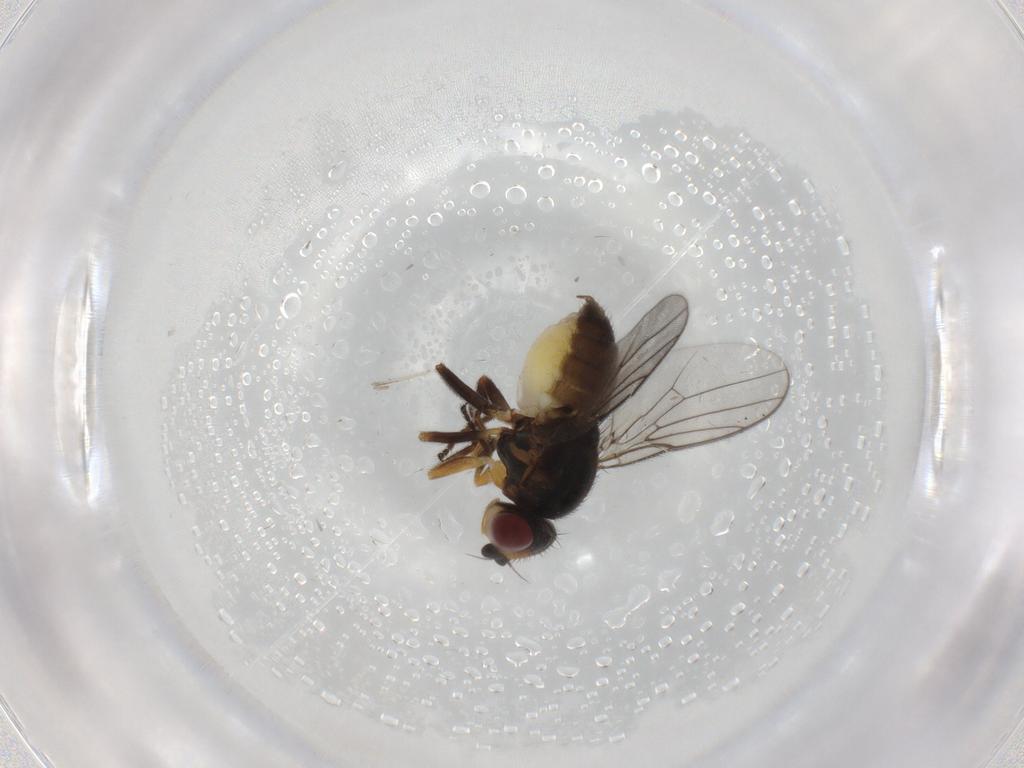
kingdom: Animalia
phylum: Arthropoda
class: Insecta
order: Diptera
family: Chloropidae
